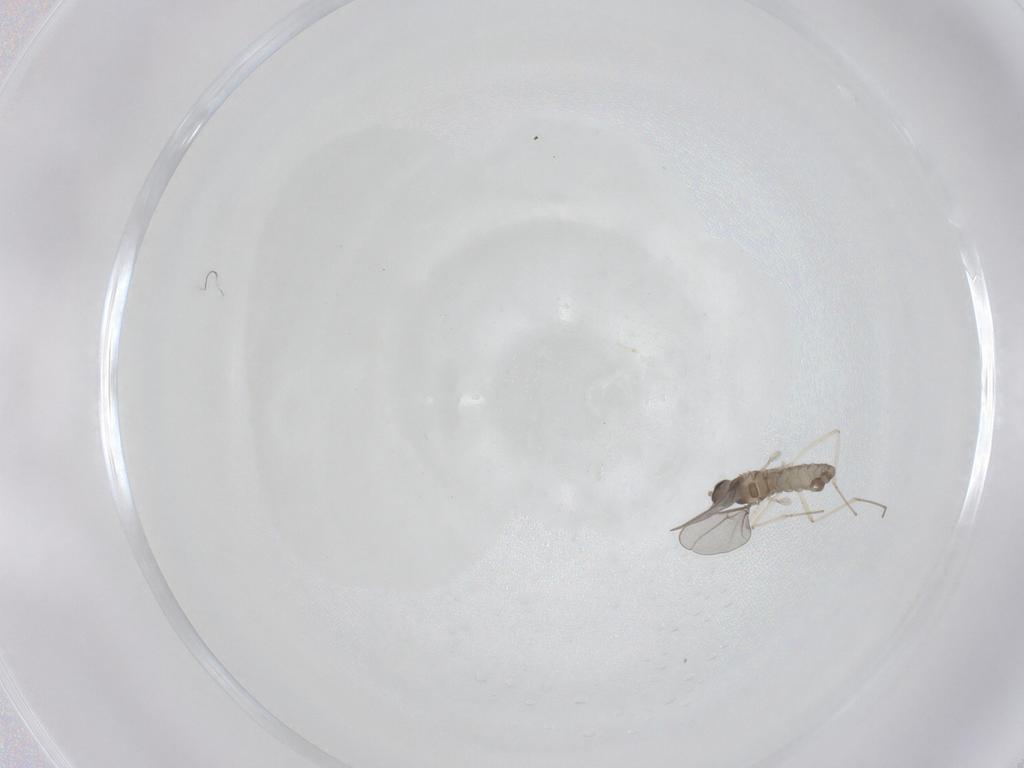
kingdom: Animalia
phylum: Arthropoda
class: Insecta
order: Diptera
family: Cecidomyiidae
